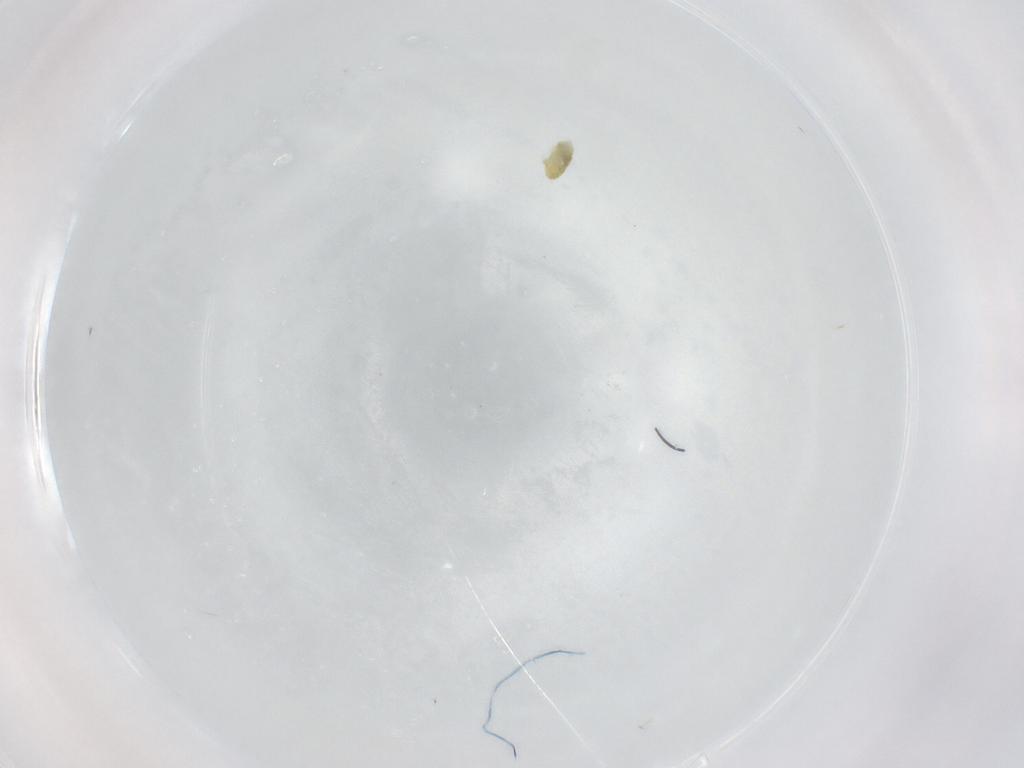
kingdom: Animalia
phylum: Arthropoda
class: Arachnida
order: Trombidiformes
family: Eupodidae
